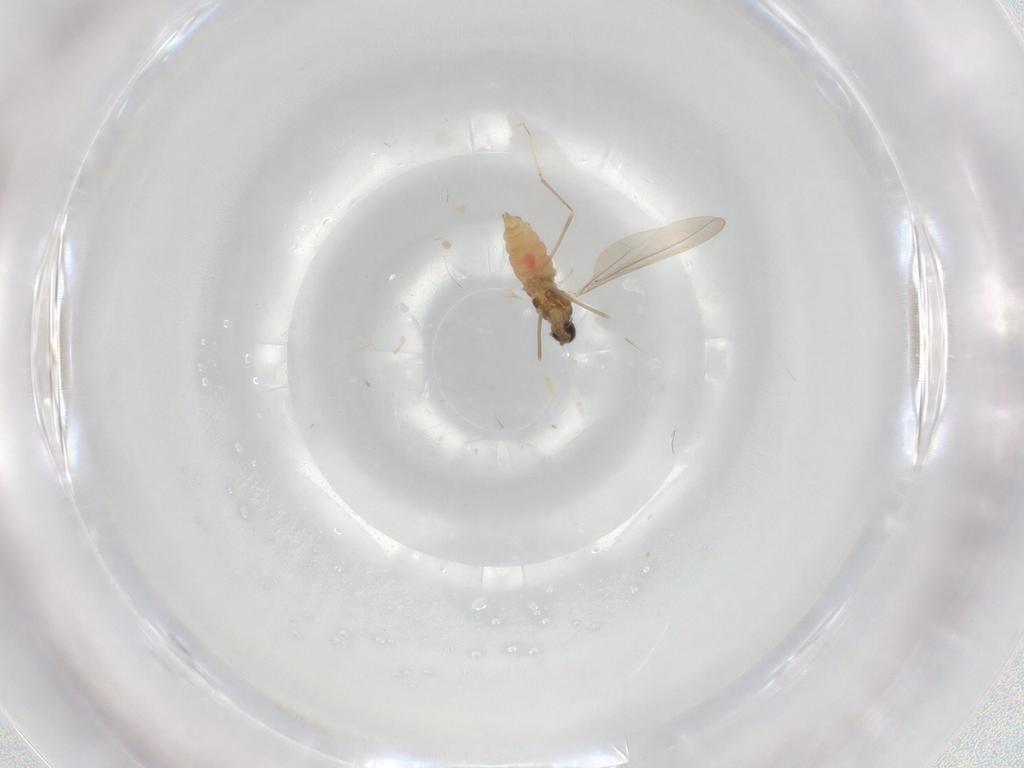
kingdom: Animalia
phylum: Arthropoda
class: Insecta
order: Diptera
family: Cecidomyiidae
